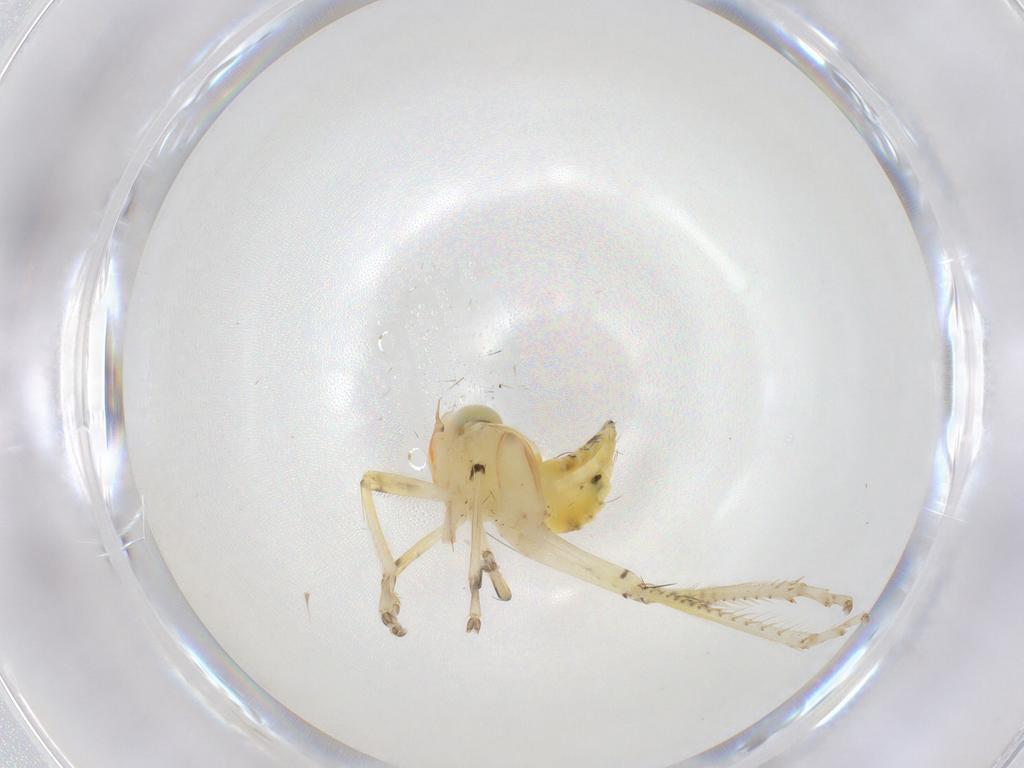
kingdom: Animalia
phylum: Arthropoda
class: Insecta
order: Hemiptera
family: Cicadellidae
